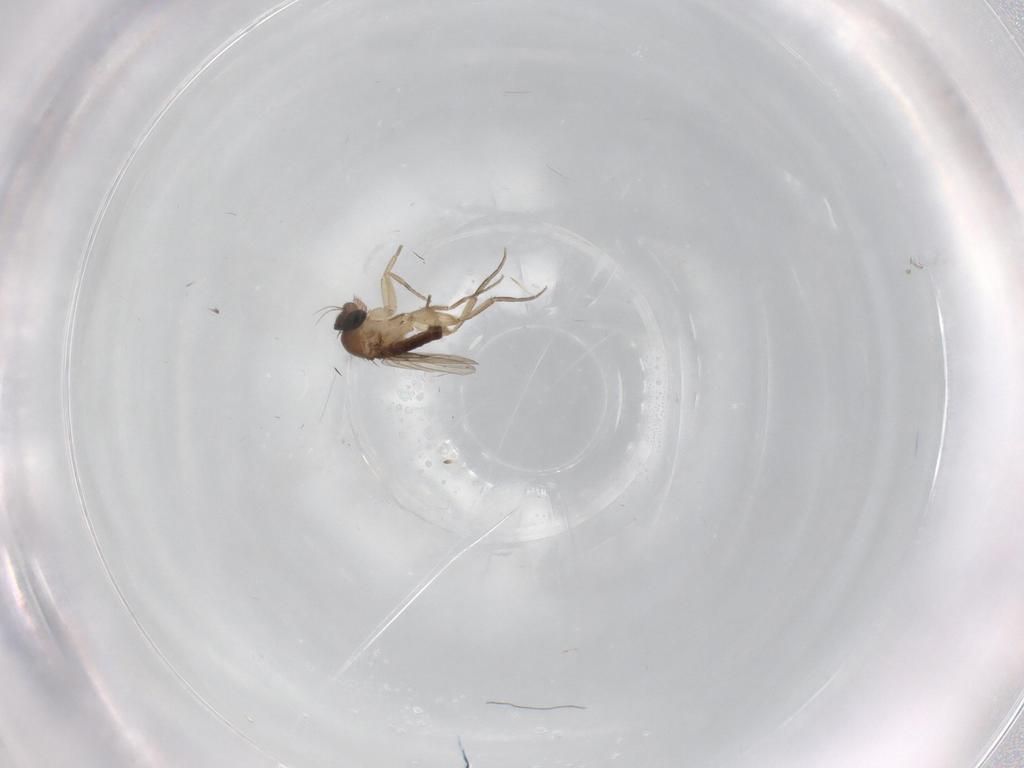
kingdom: Animalia
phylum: Arthropoda
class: Insecta
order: Diptera
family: Phoridae
